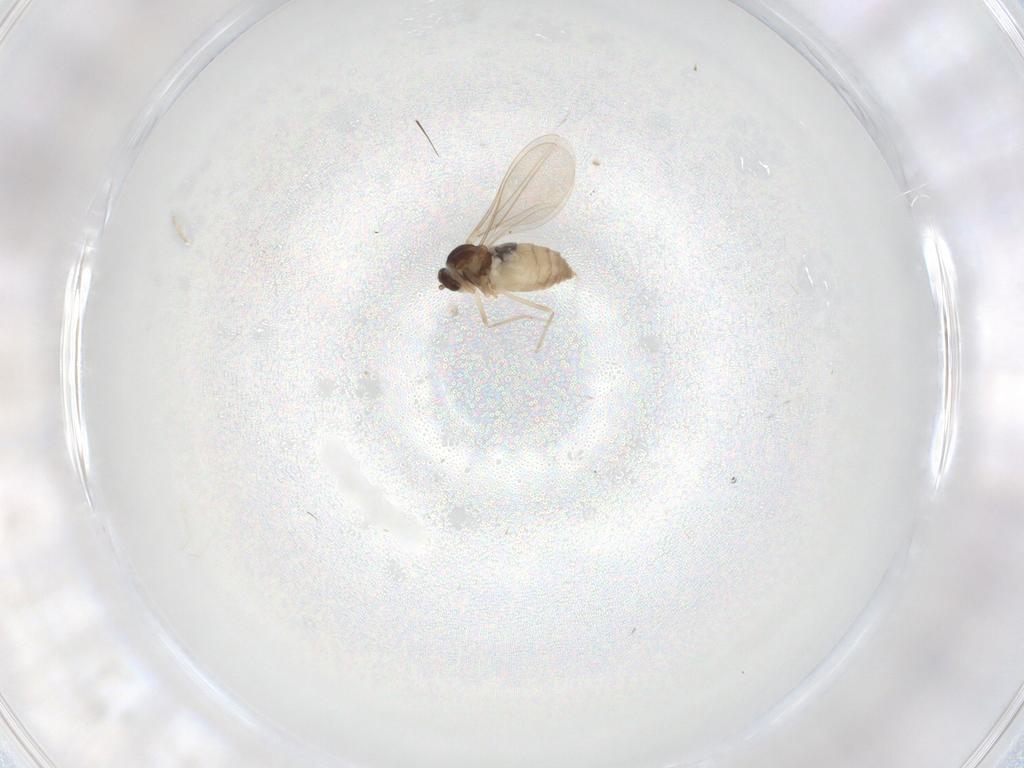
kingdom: Animalia
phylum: Arthropoda
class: Insecta
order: Diptera
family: Cecidomyiidae
